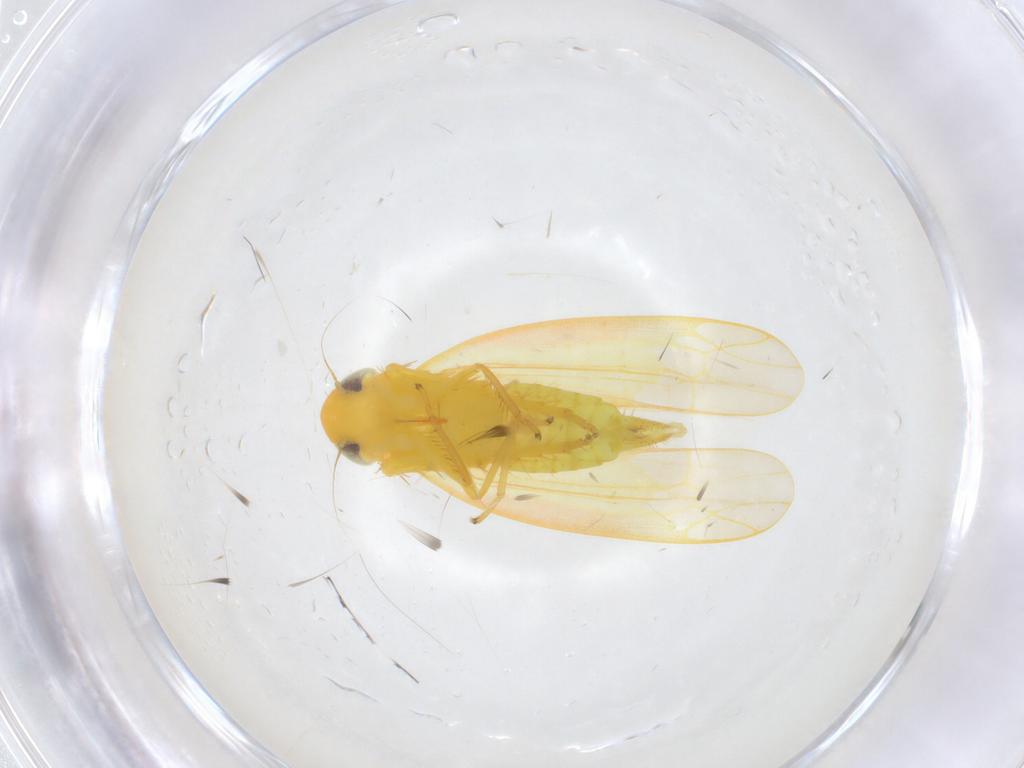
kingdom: Animalia
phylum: Arthropoda
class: Insecta
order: Hemiptera
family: Cicadellidae
